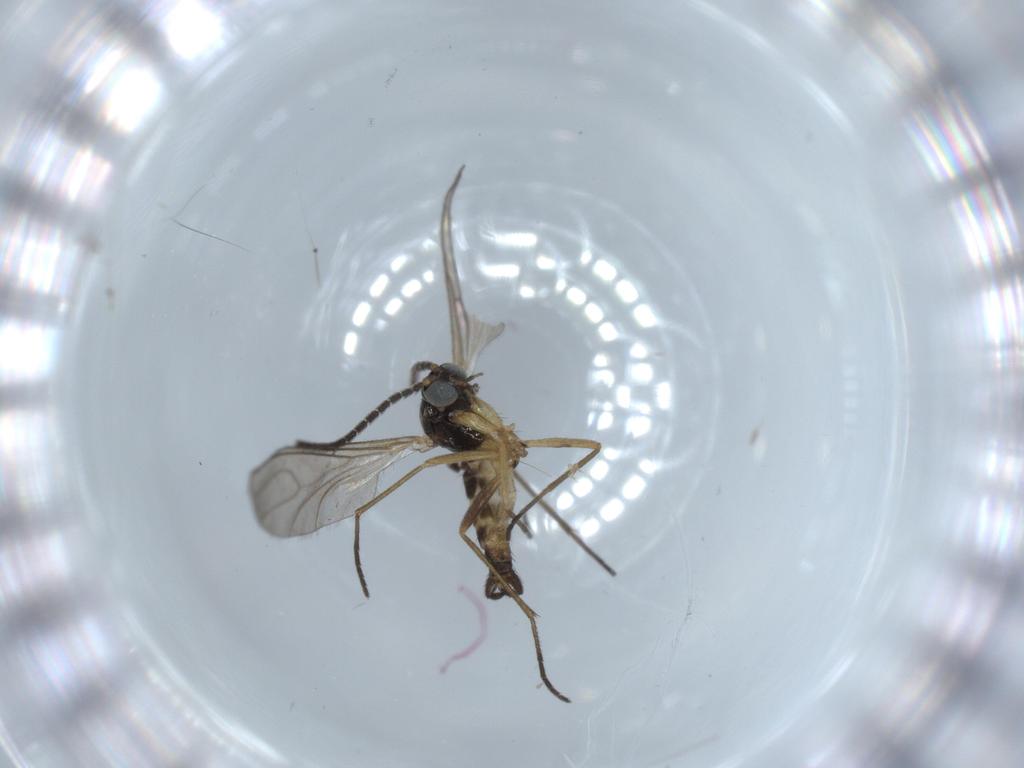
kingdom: Animalia
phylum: Arthropoda
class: Insecta
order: Diptera
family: Sciaridae
